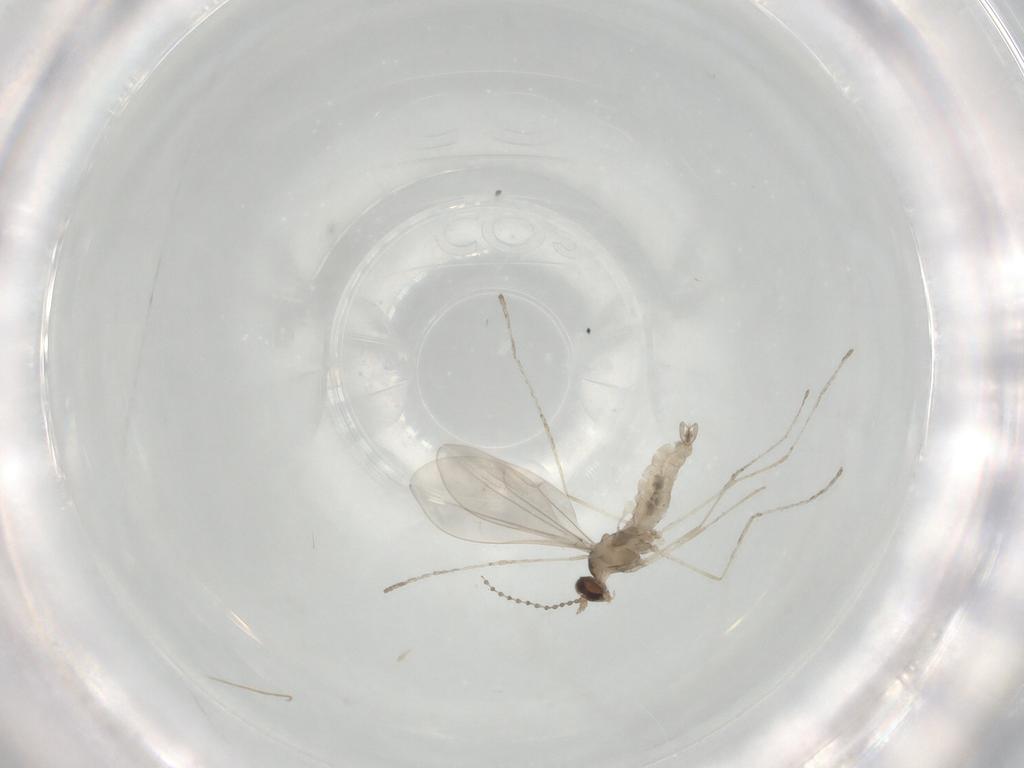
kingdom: Animalia
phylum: Arthropoda
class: Insecta
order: Diptera
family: Cecidomyiidae
